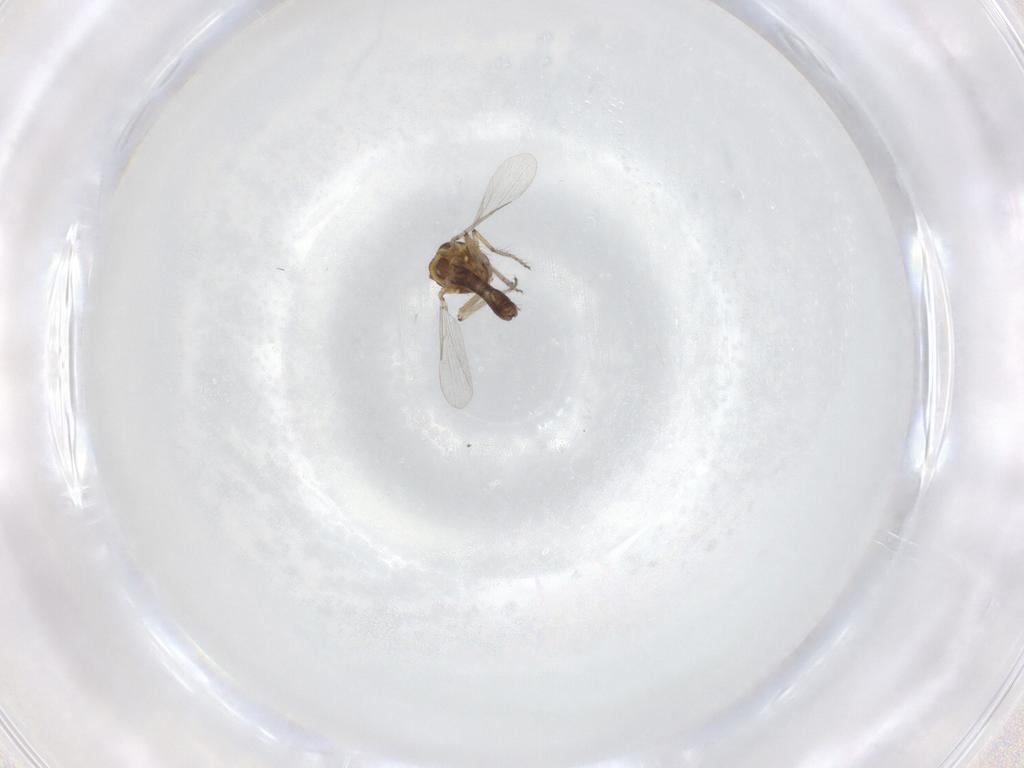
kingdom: Animalia
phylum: Arthropoda
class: Insecta
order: Diptera
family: Ceratopogonidae
